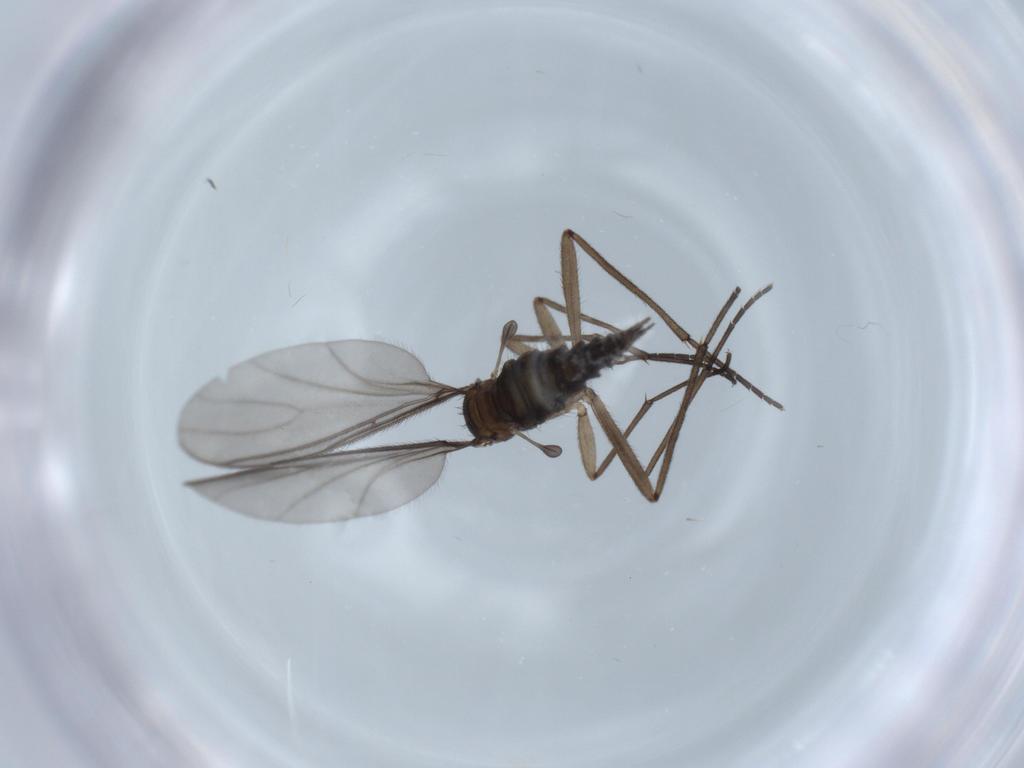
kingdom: Animalia
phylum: Arthropoda
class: Insecta
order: Diptera
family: Sciaridae
